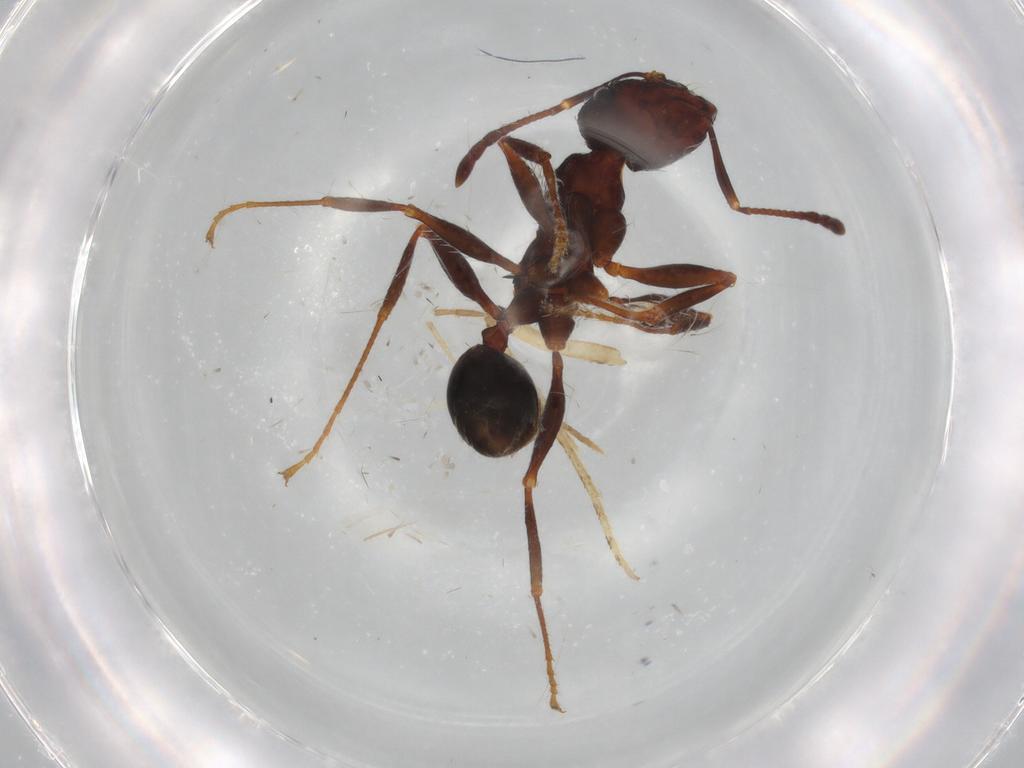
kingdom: Animalia
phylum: Arthropoda
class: Insecta
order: Hymenoptera
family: Formicidae
